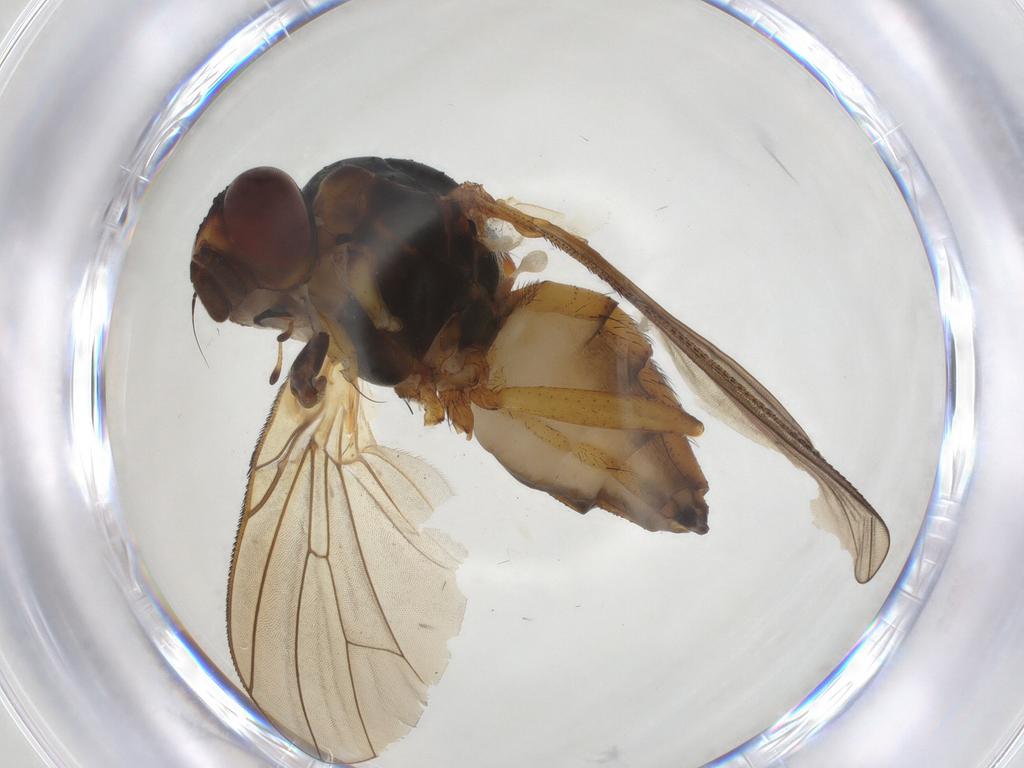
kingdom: Animalia
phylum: Arthropoda
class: Insecta
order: Diptera
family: Anthomyiidae
